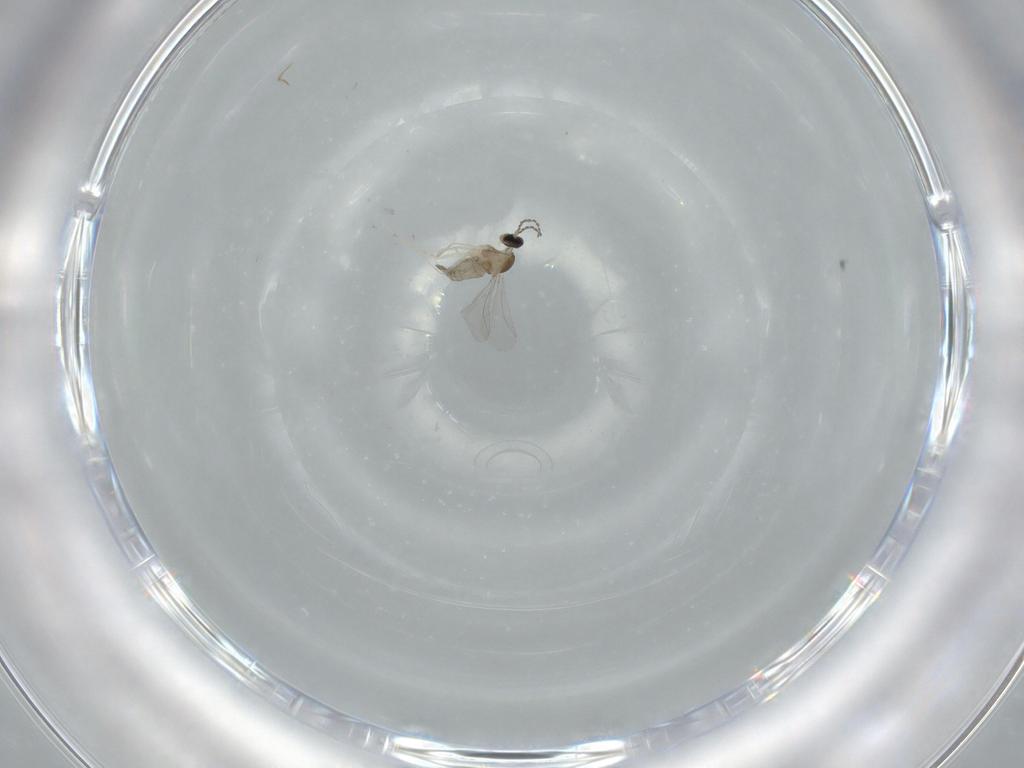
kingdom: Animalia
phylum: Arthropoda
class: Insecta
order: Diptera
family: Cecidomyiidae
